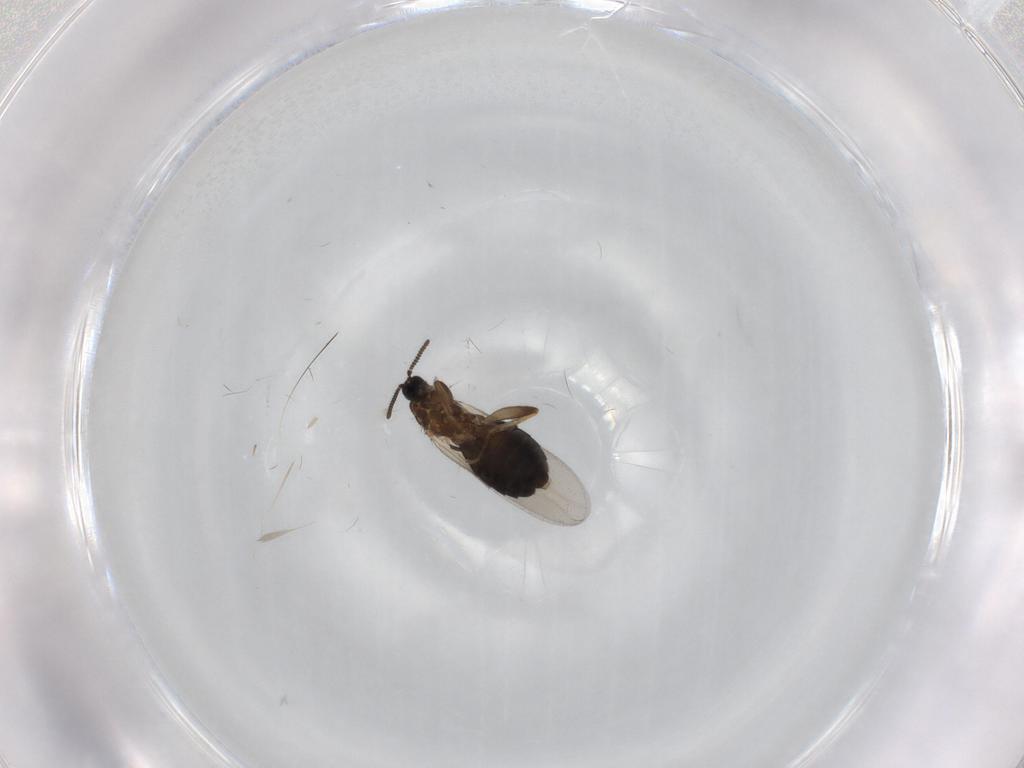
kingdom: Animalia
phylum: Arthropoda
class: Insecta
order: Diptera
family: Scatopsidae
